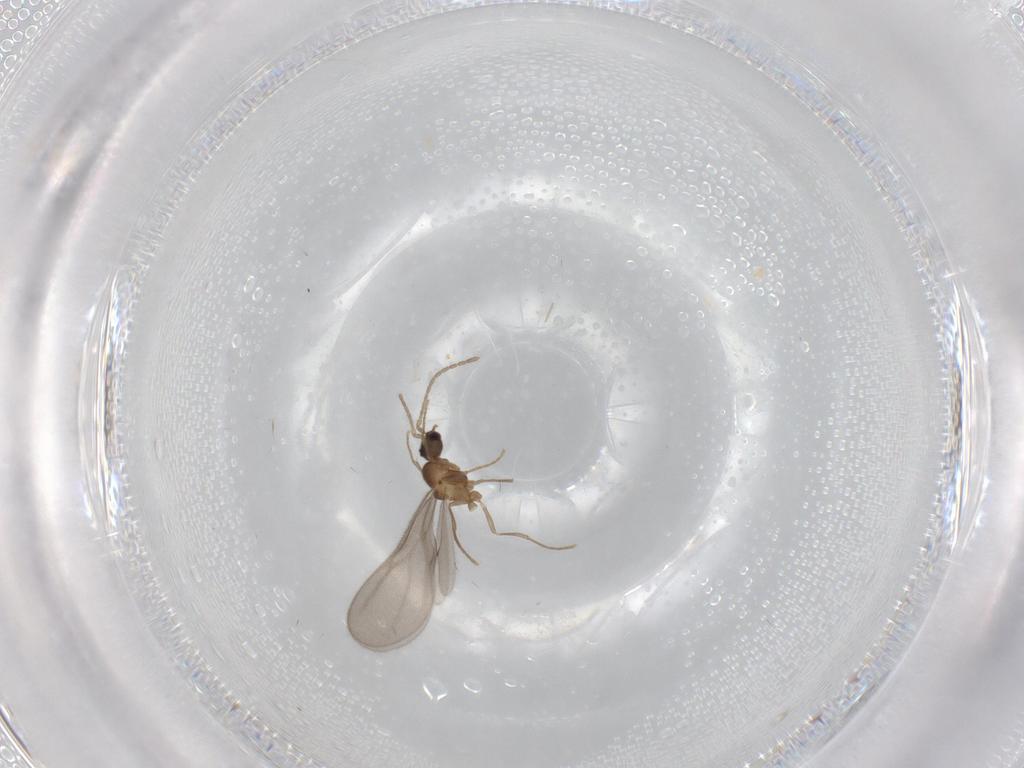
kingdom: Animalia
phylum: Arthropoda
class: Insecta
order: Hymenoptera
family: Formicidae
